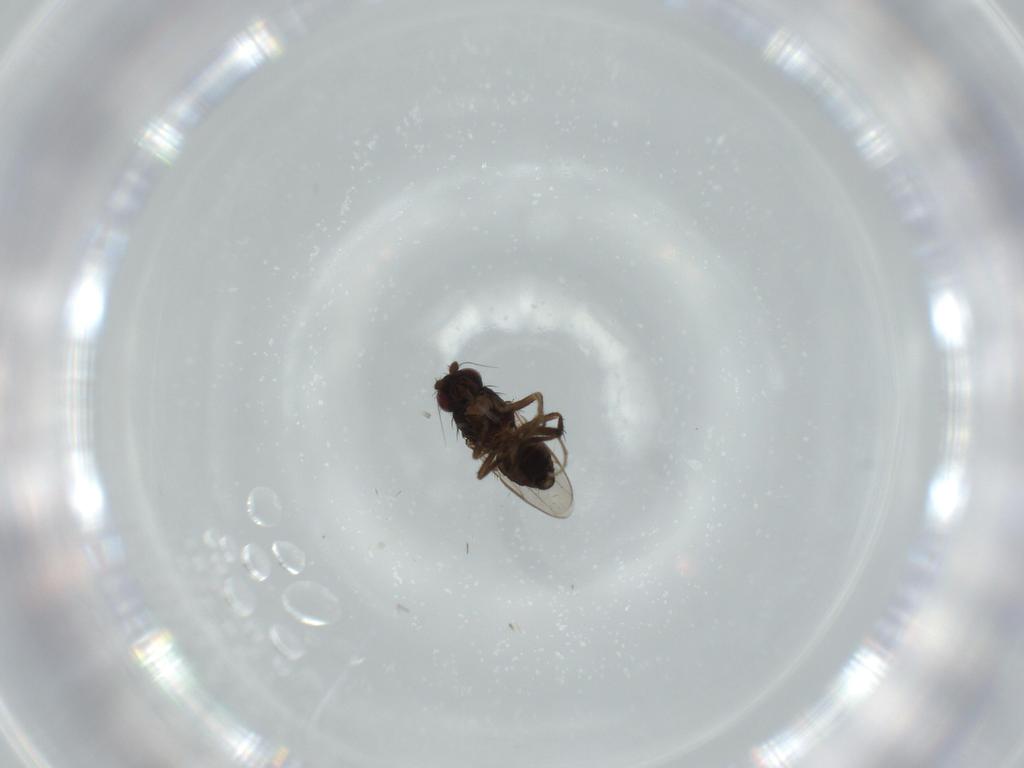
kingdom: Animalia
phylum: Arthropoda
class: Insecta
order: Diptera
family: Sphaeroceridae
